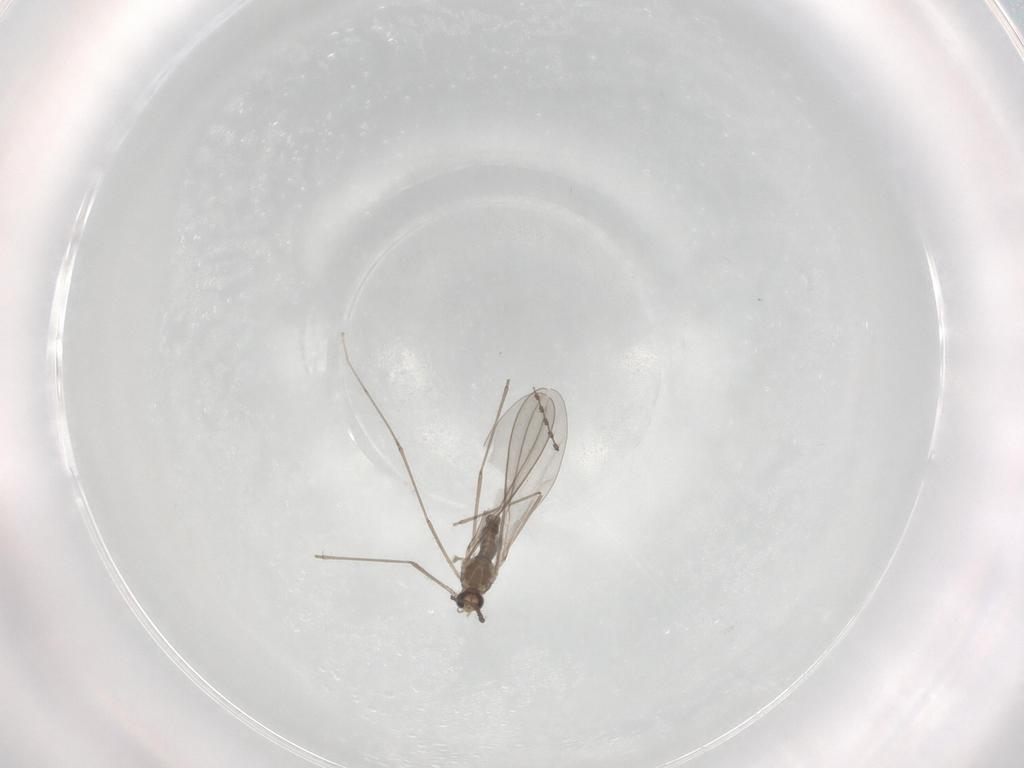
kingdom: Animalia
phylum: Arthropoda
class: Insecta
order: Diptera
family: Cecidomyiidae
